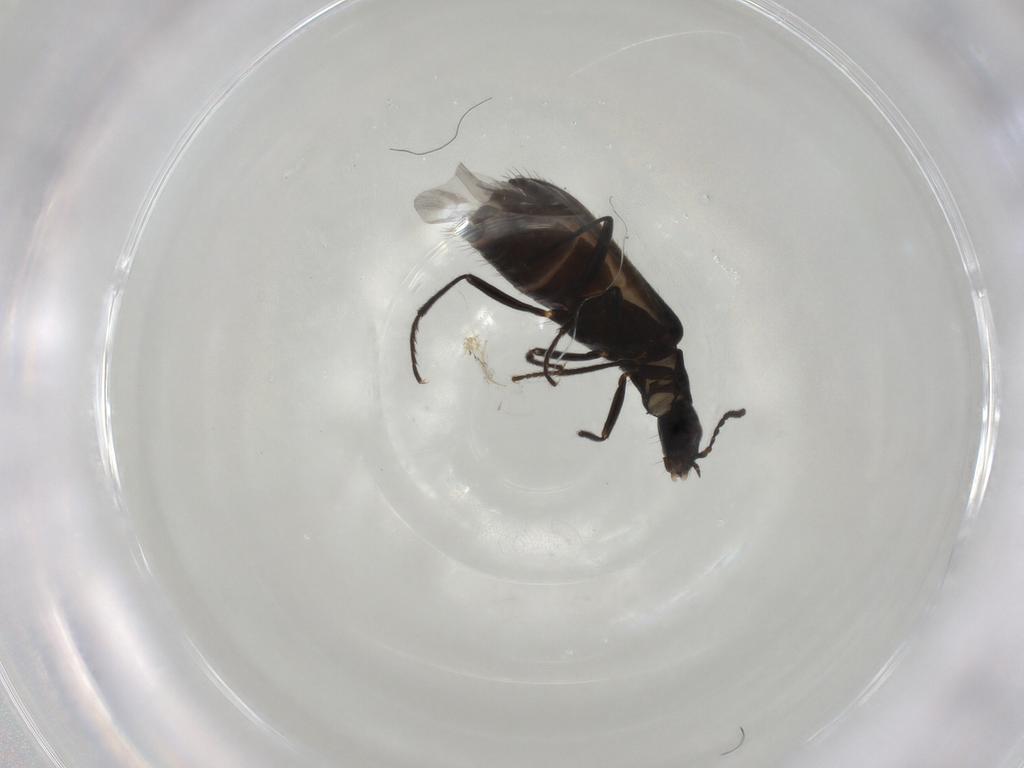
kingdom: Animalia
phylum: Arthropoda
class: Insecta
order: Coleoptera
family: Melyridae
